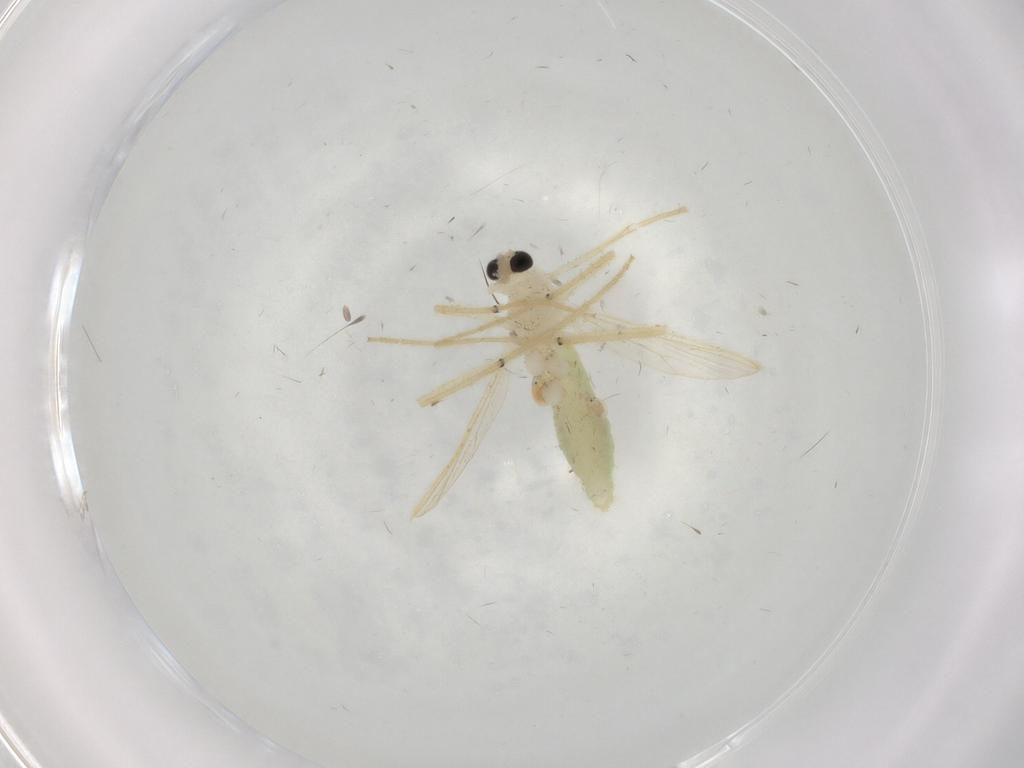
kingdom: Animalia
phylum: Arthropoda
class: Insecta
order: Diptera
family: Chironomidae
